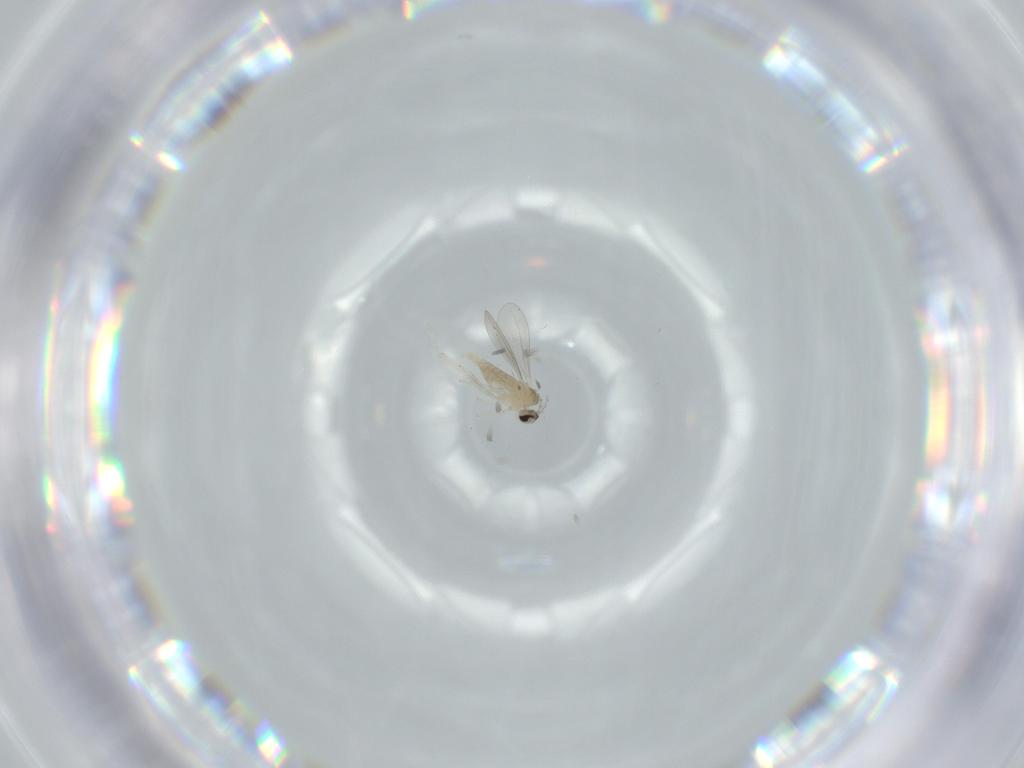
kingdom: Animalia
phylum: Arthropoda
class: Insecta
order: Diptera
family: Cecidomyiidae
